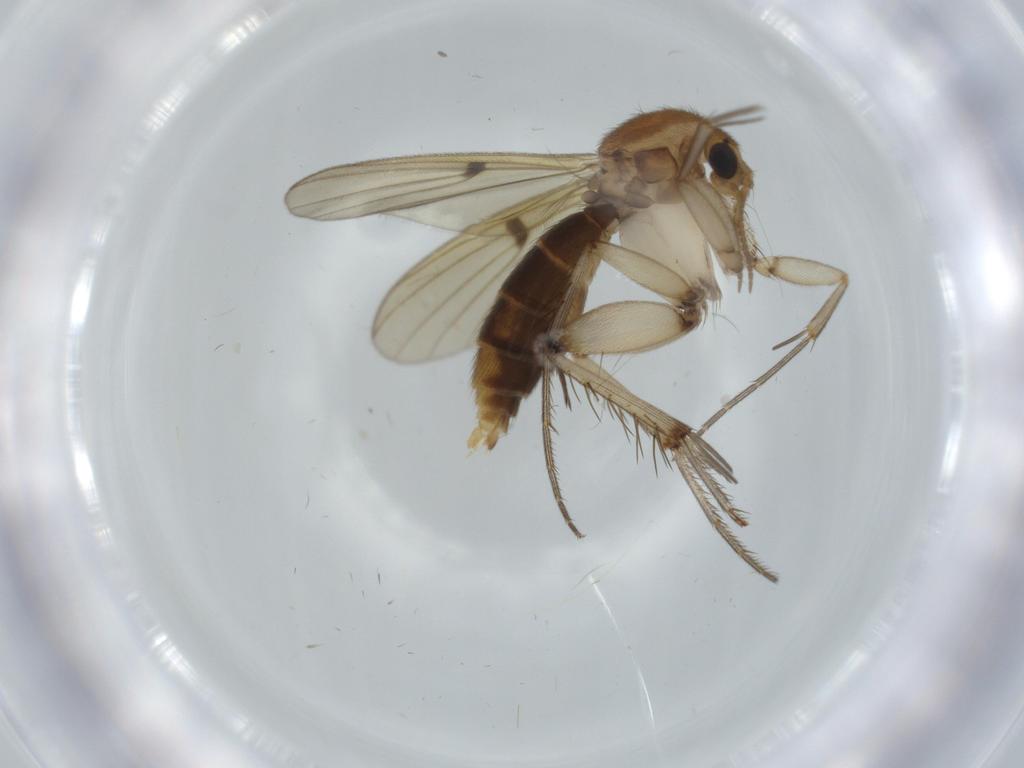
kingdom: Animalia
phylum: Arthropoda
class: Insecta
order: Diptera
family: Mycetophilidae
